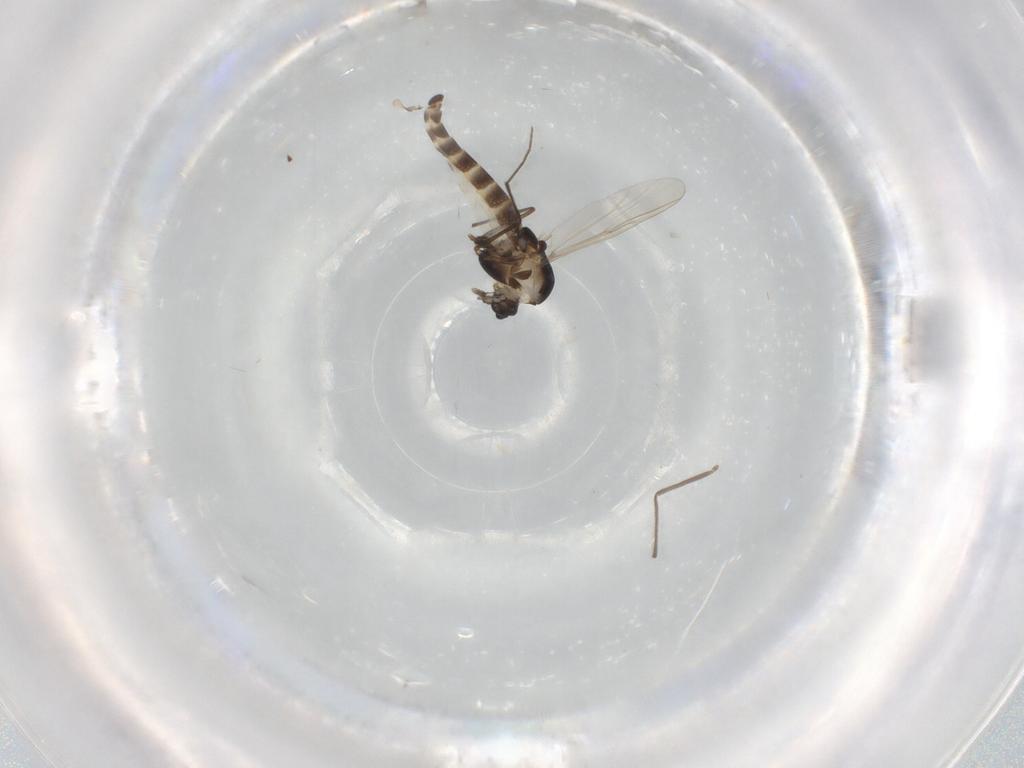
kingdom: Animalia
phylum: Arthropoda
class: Insecta
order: Diptera
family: Chironomidae
